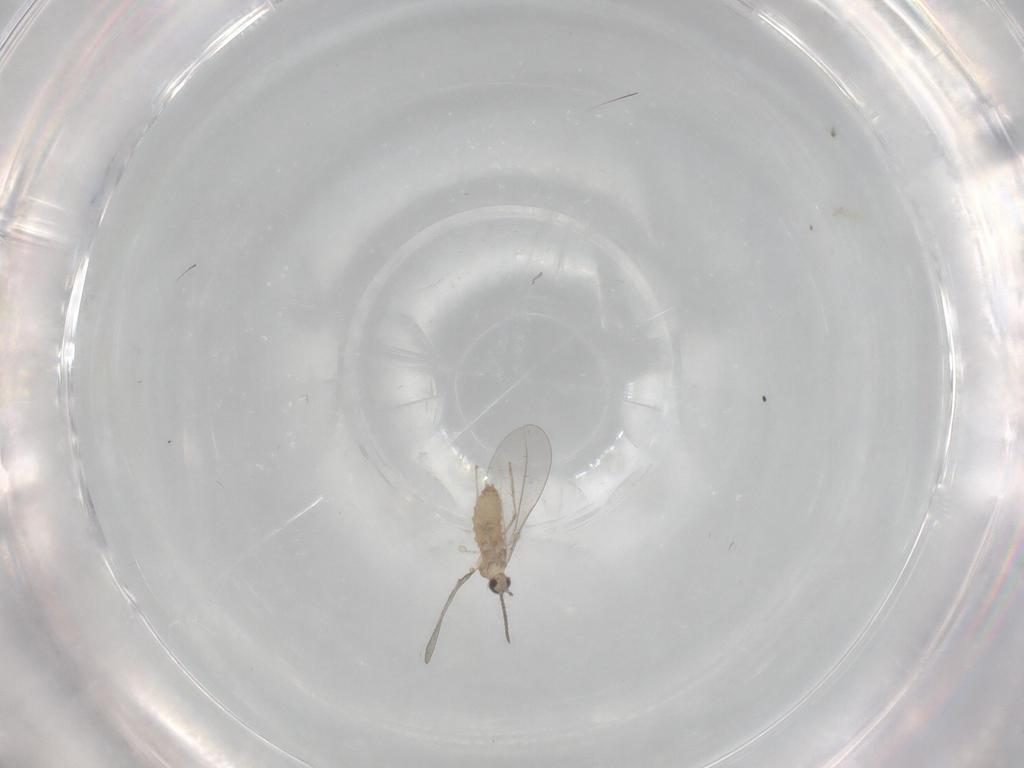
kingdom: Animalia
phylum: Arthropoda
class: Insecta
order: Diptera
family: Cecidomyiidae
